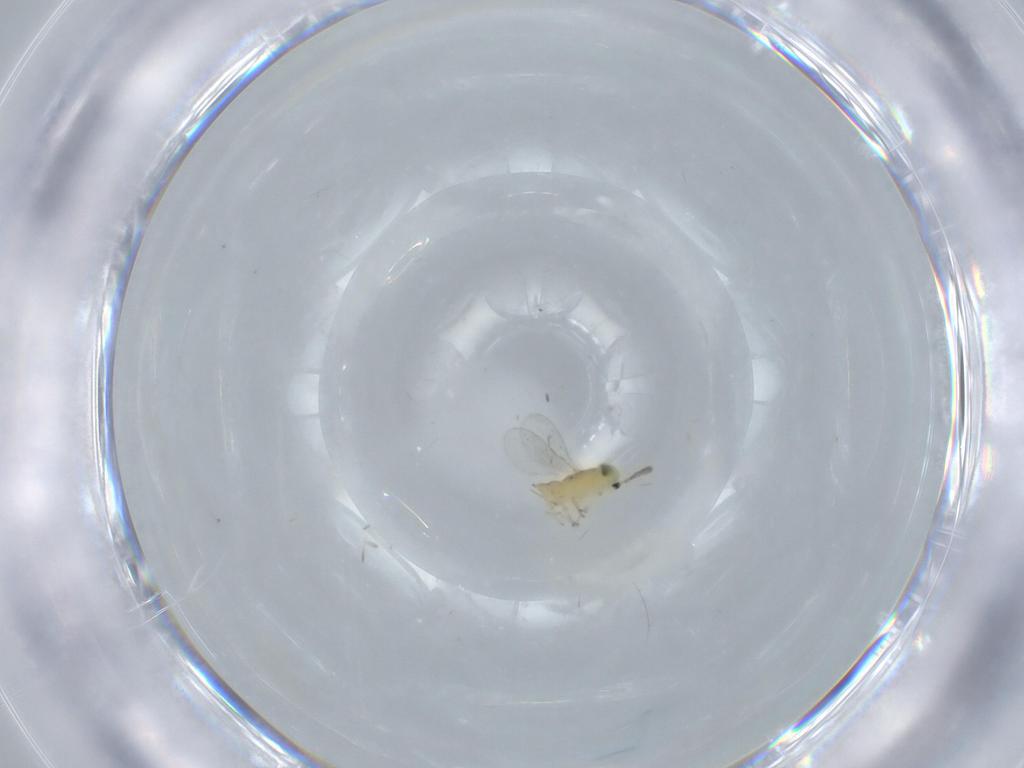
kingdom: Animalia
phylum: Arthropoda
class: Insecta
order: Hymenoptera
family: Encyrtidae
